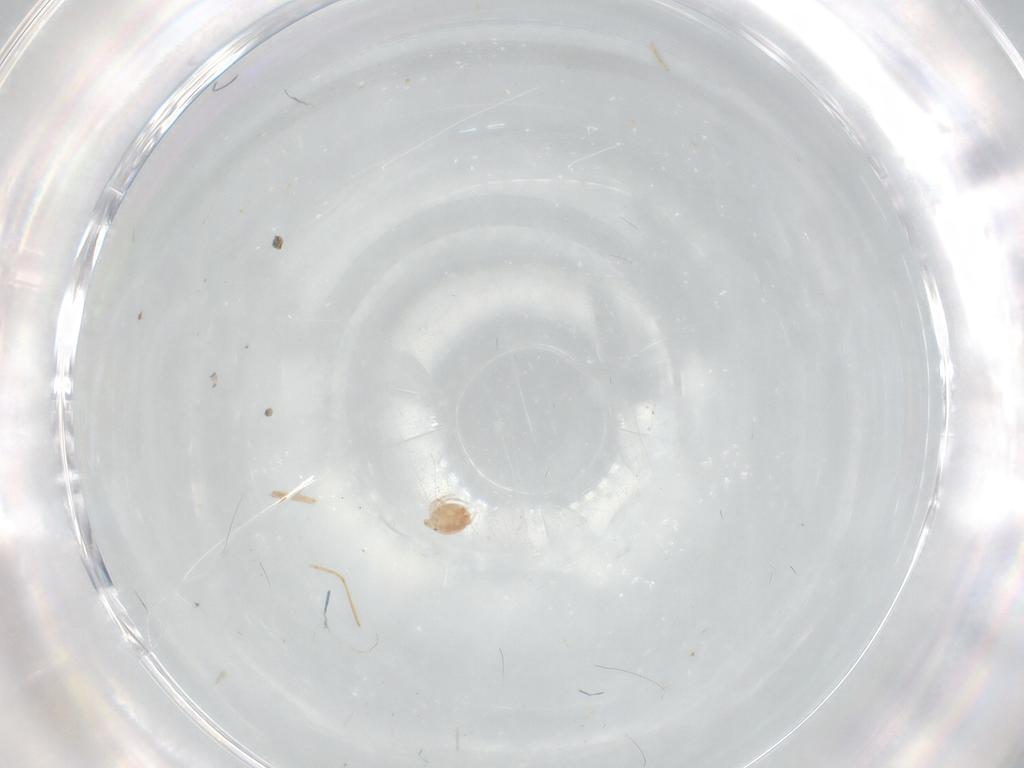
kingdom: Animalia
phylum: Arthropoda
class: Arachnida
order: Trombidiformes
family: Hygrobatidae
